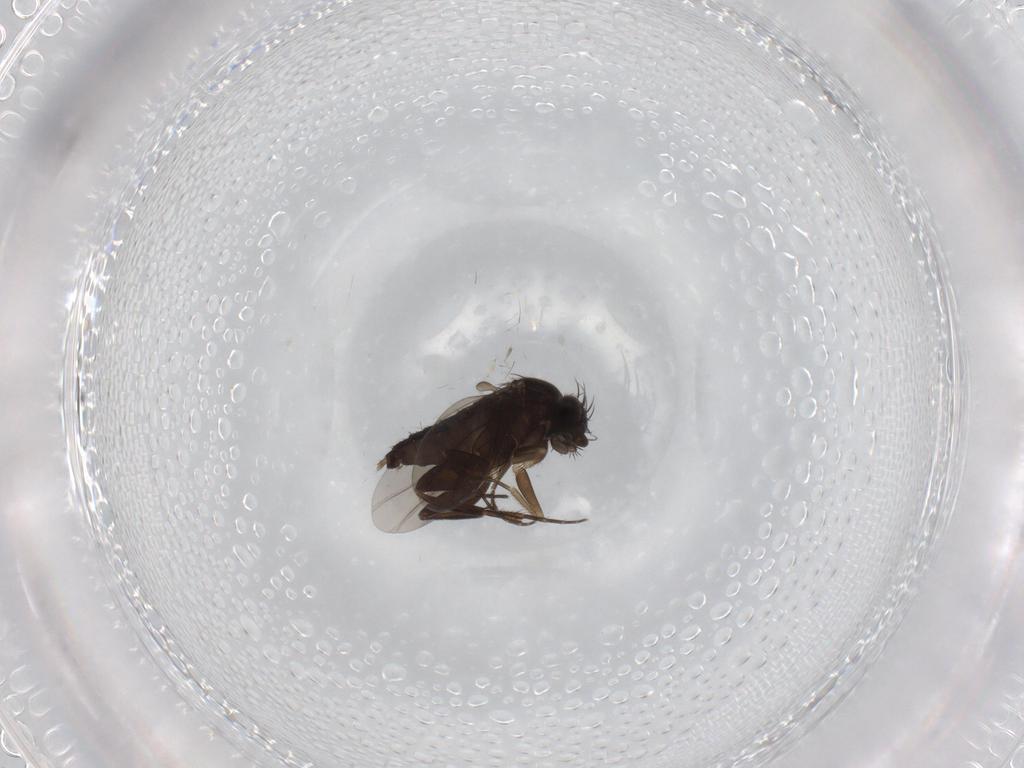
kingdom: Animalia
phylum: Arthropoda
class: Insecta
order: Diptera
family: Phoridae
